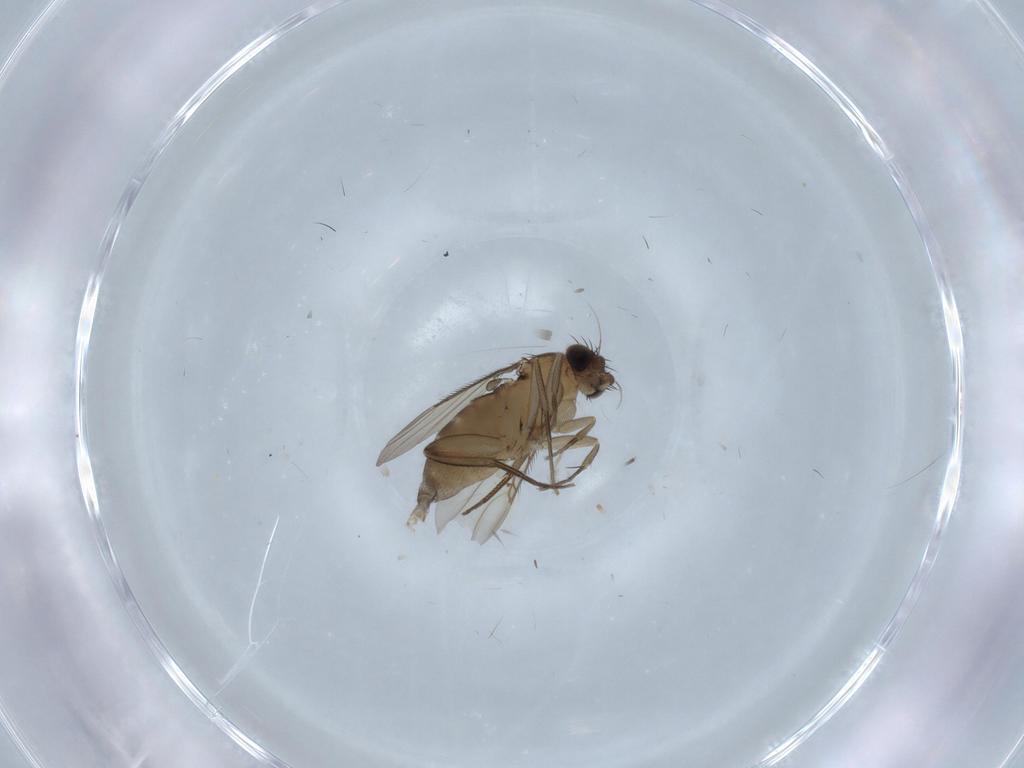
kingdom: Animalia
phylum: Arthropoda
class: Insecta
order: Diptera
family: Phoridae
